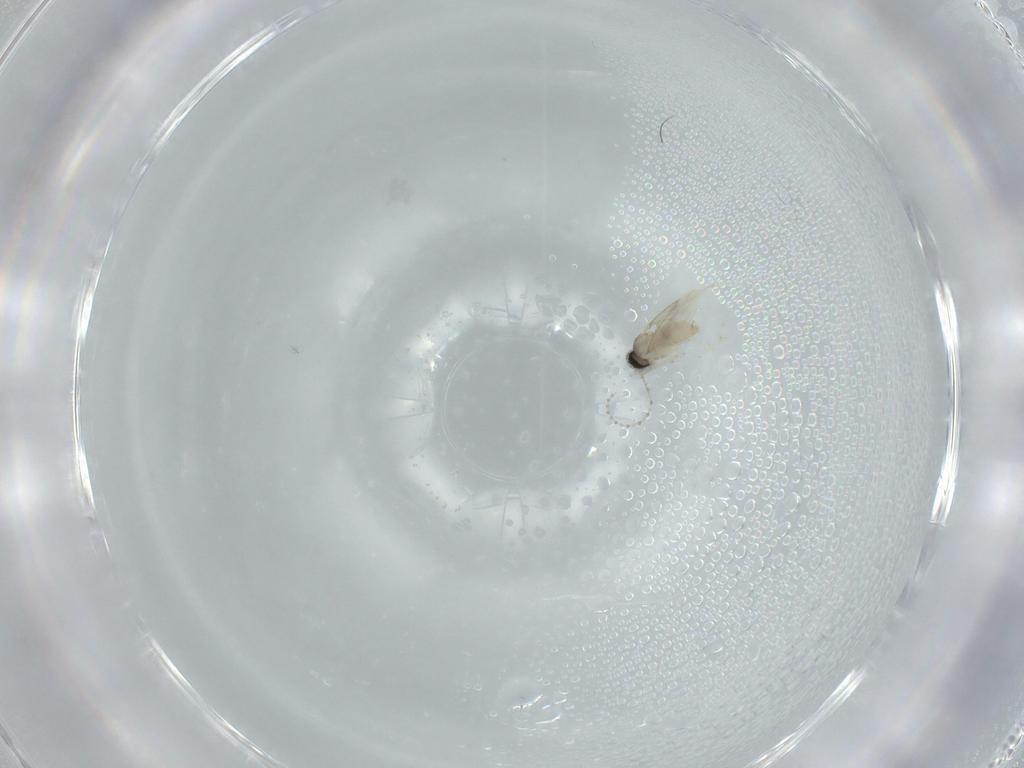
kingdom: Animalia
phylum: Arthropoda
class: Insecta
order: Diptera
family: Cecidomyiidae
